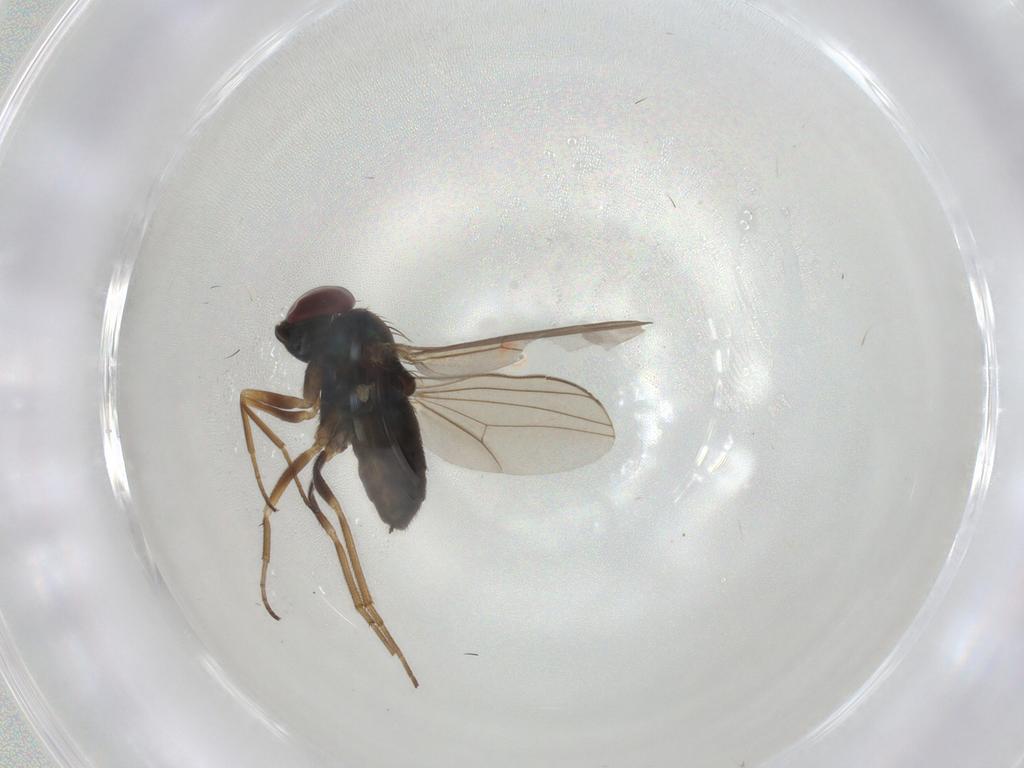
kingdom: Animalia
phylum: Arthropoda
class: Insecta
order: Diptera
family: Dolichopodidae
